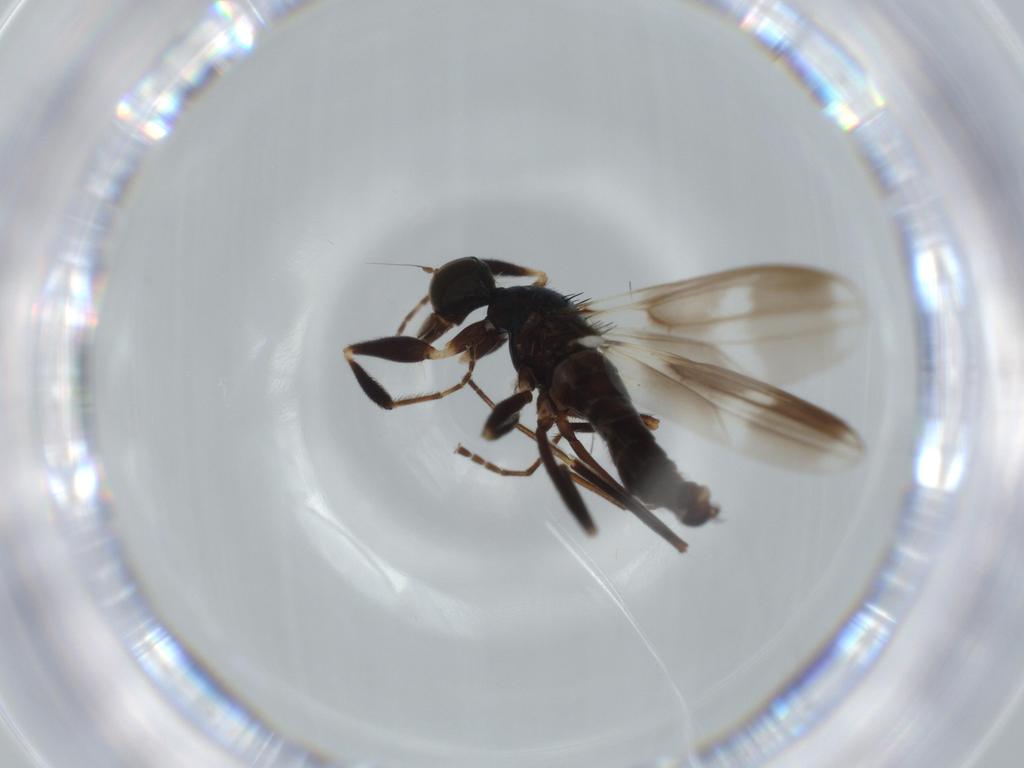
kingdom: Animalia
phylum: Arthropoda
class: Insecta
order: Diptera
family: Hybotidae
